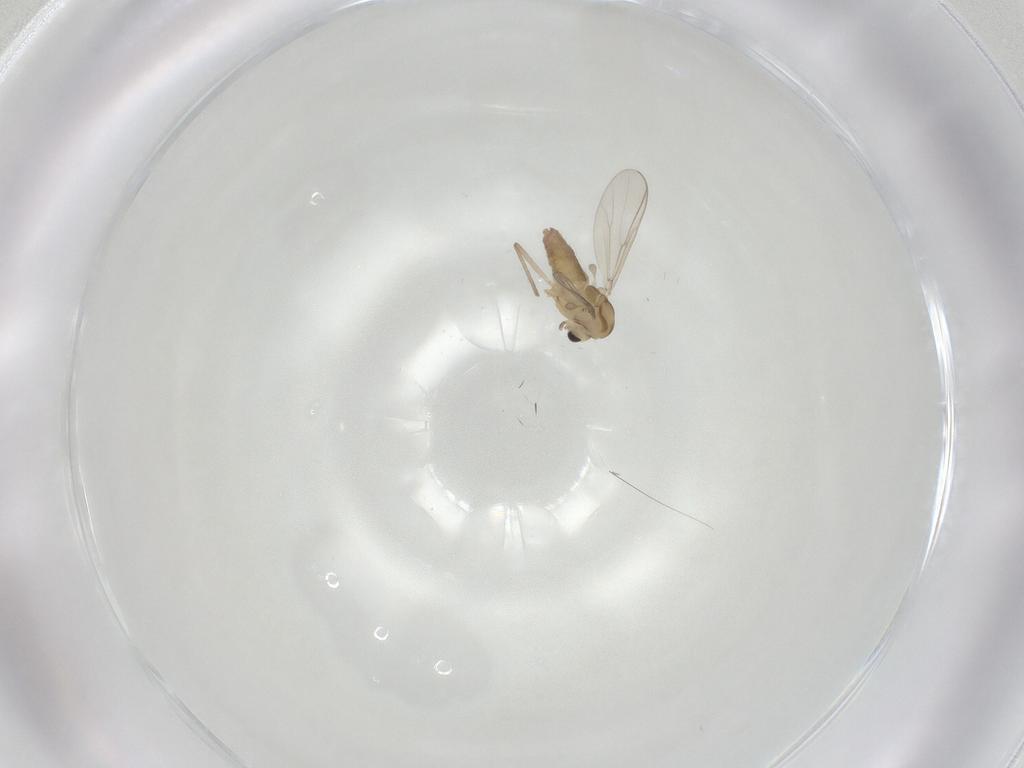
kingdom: Animalia
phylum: Arthropoda
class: Insecta
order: Diptera
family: Chironomidae
